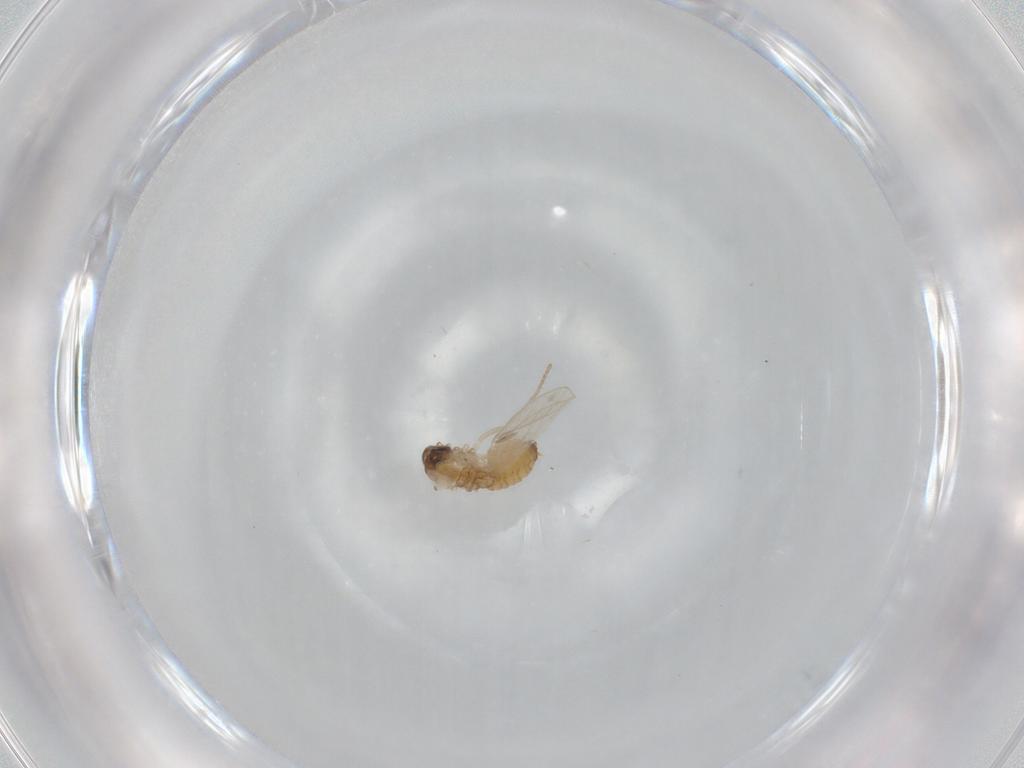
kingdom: Animalia
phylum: Arthropoda
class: Insecta
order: Diptera
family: Psychodidae
